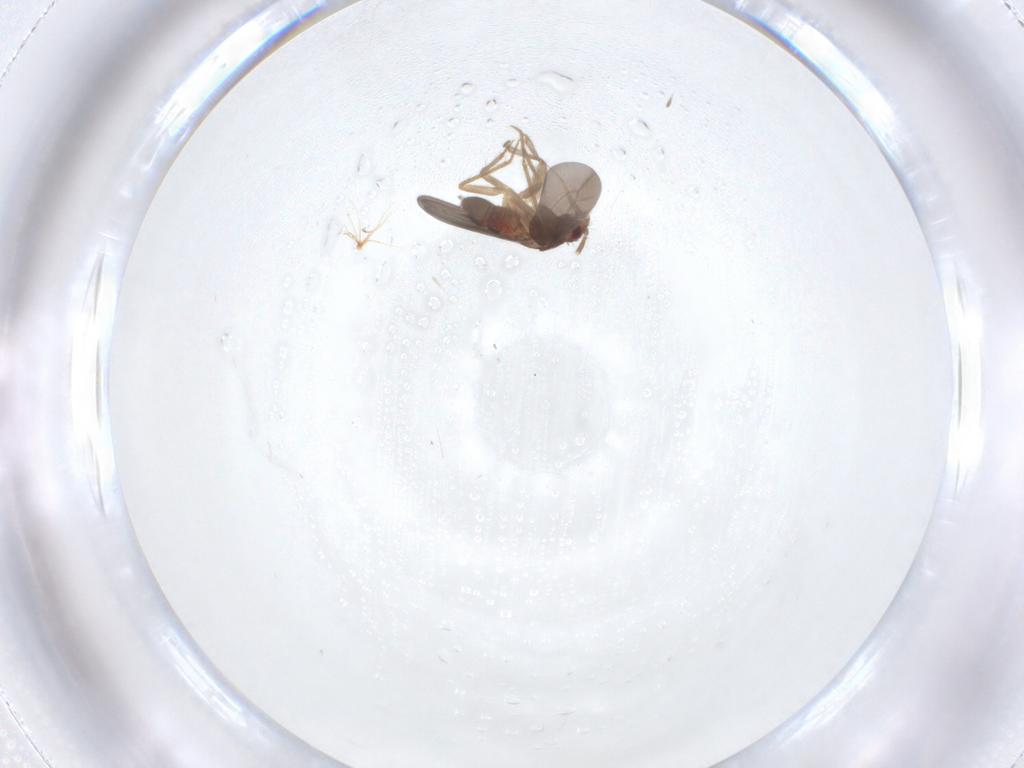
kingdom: Animalia
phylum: Arthropoda
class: Insecta
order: Hemiptera
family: Ceratocombidae
